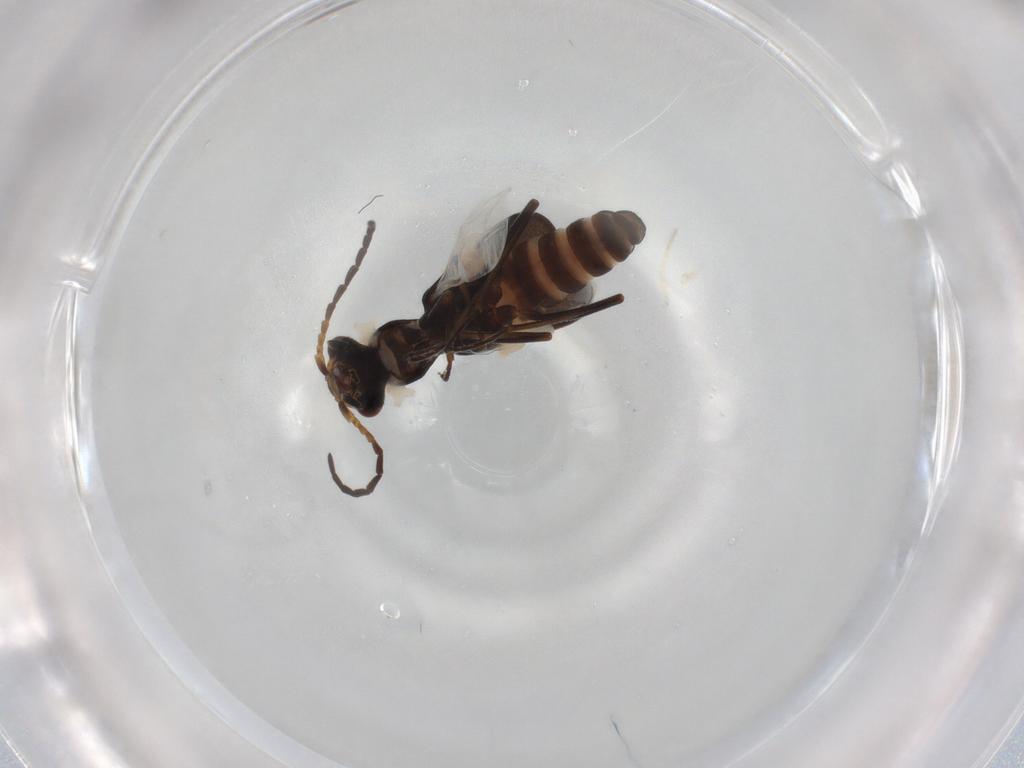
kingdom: Animalia
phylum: Arthropoda
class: Insecta
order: Coleoptera
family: Melyridae
